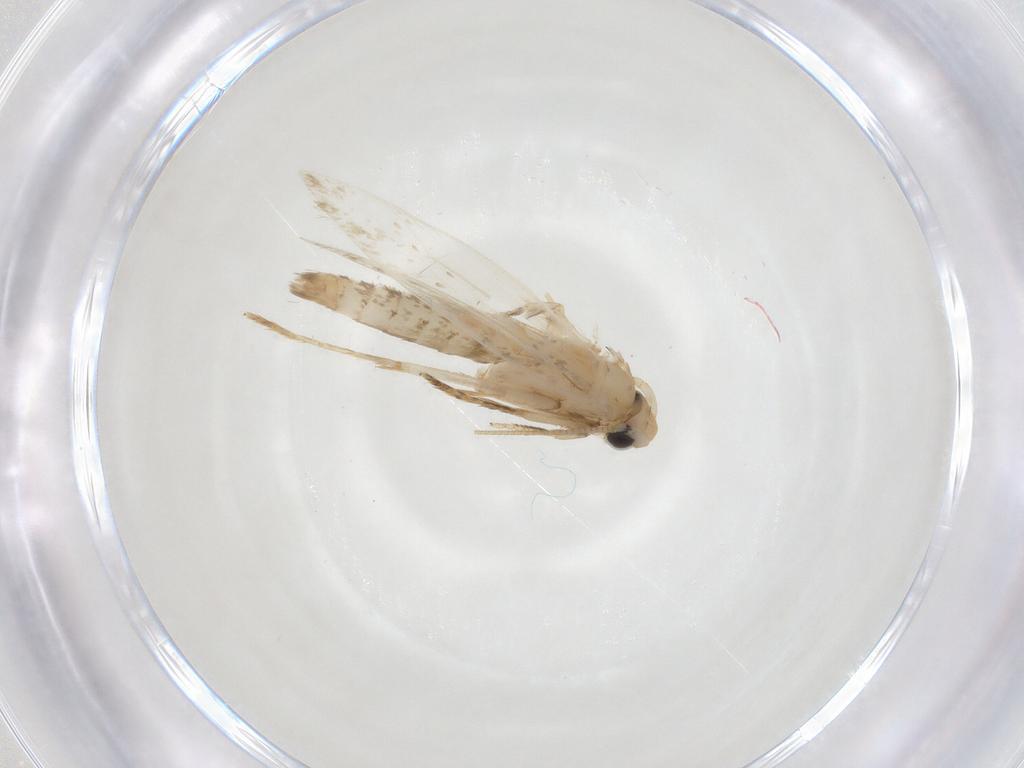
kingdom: Animalia
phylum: Arthropoda
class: Insecta
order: Lepidoptera
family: Tineidae
